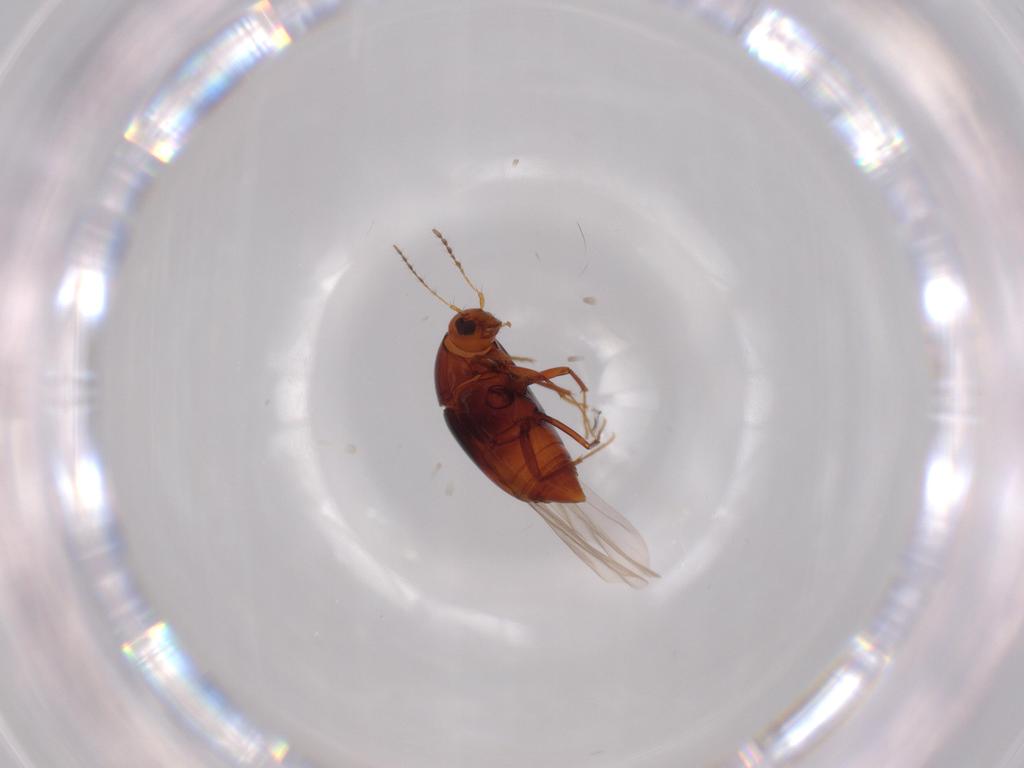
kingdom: Animalia
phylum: Arthropoda
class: Insecta
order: Coleoptera
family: Staphylinidae
